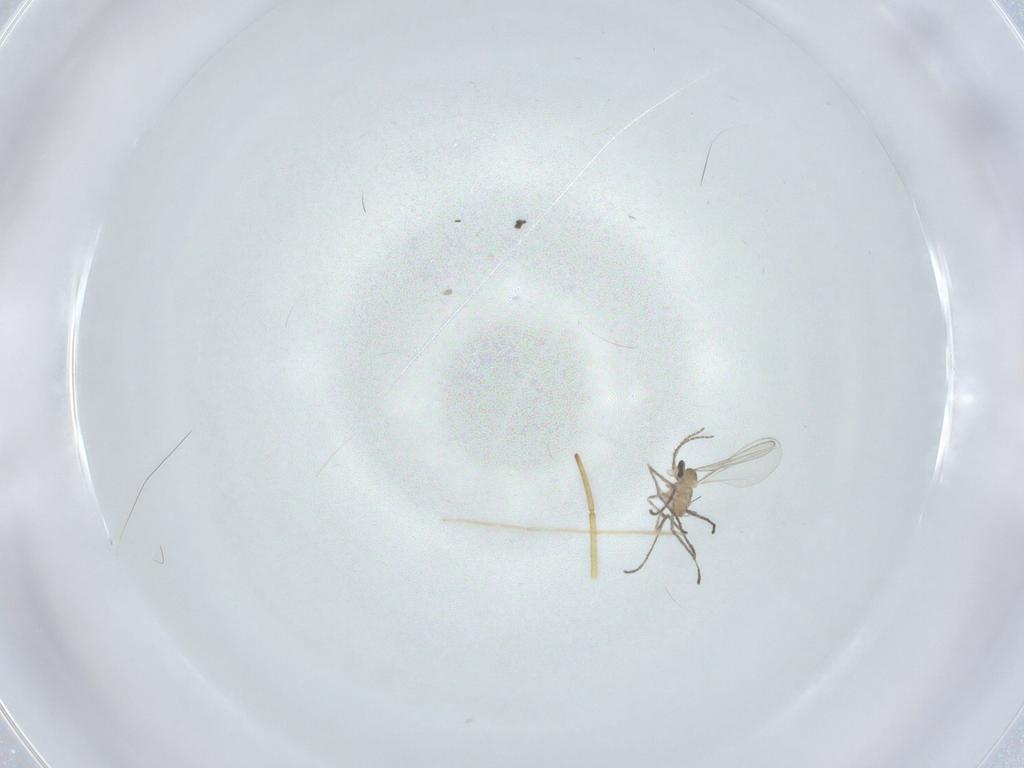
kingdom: Animalia
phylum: Arthropoda
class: Insecta
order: Diptera
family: Cecidomyiidae
